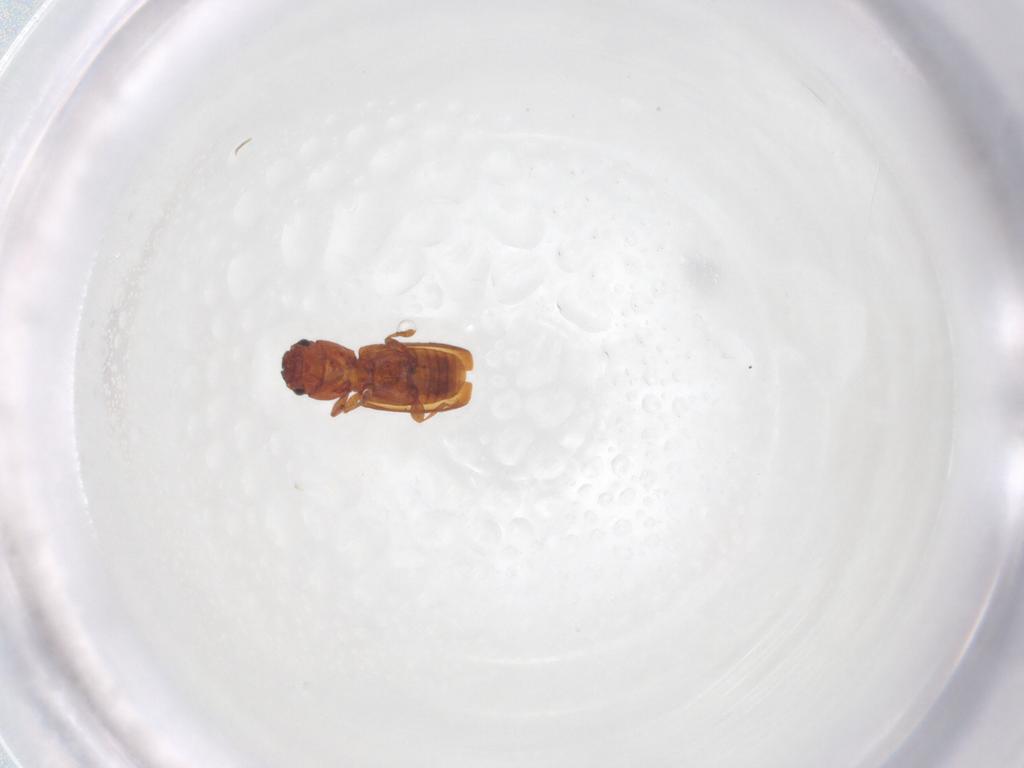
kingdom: Animalia
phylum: Arthropoda
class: Insecta
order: Coleoptera
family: Laemophloeidae
